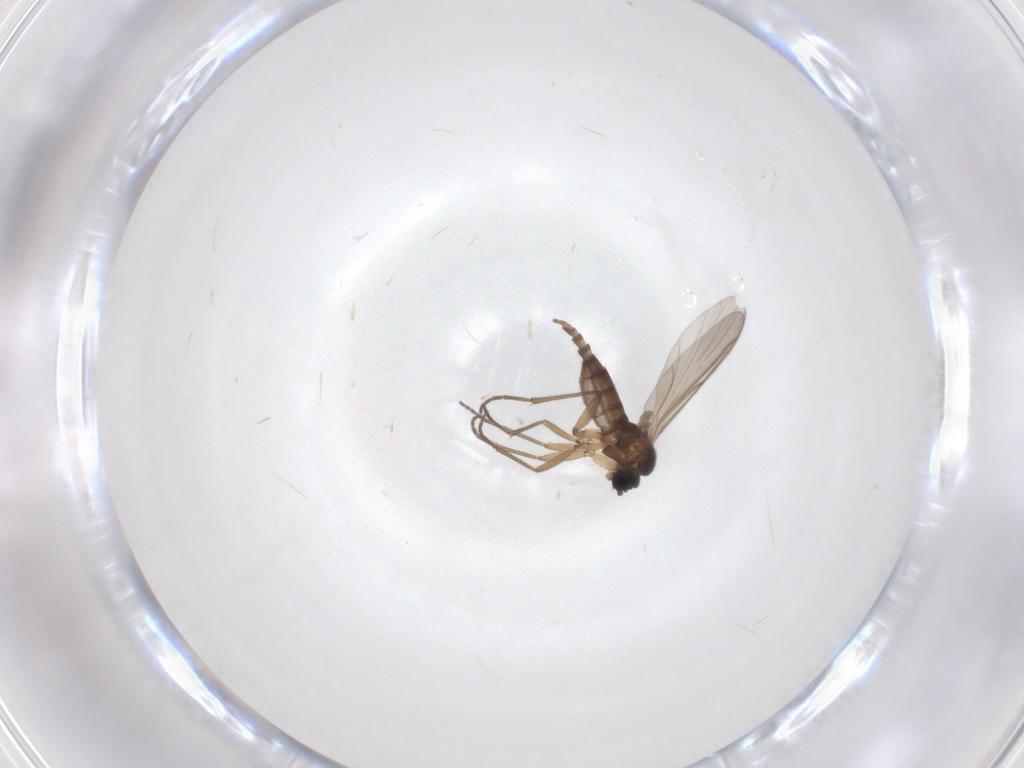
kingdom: Animalia
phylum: Arthropoda
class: Insecta
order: Diptera
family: Sciaridae
